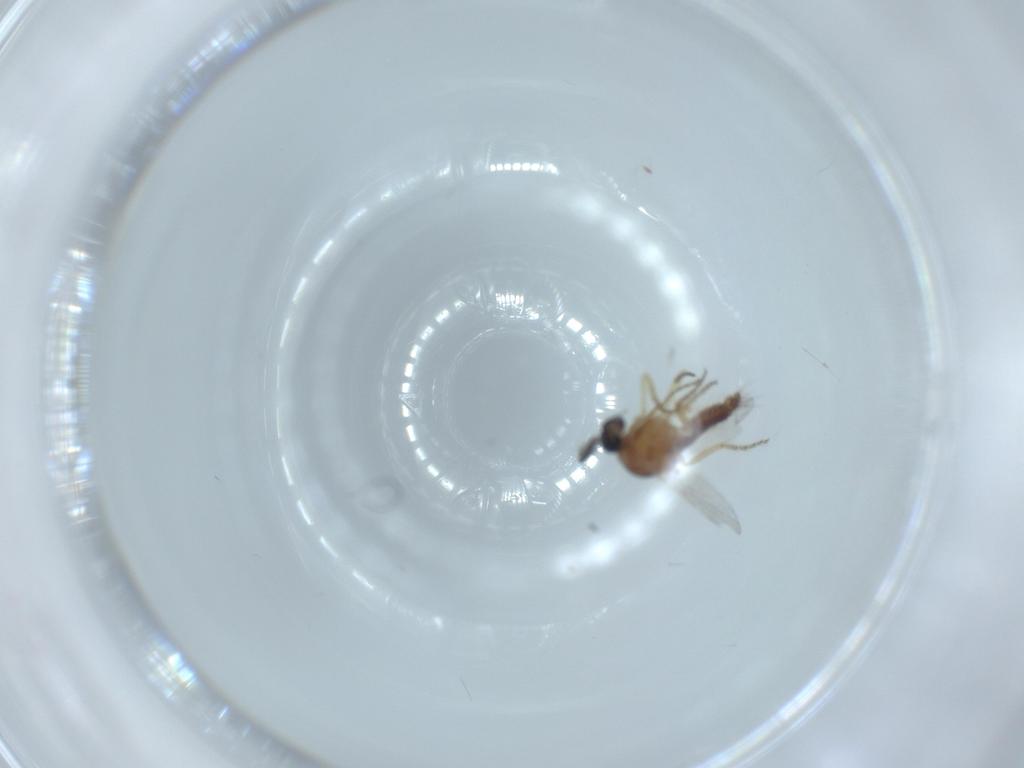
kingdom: Animalia
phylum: Arthropoda
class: Insecta
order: Diptera
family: Ceratopogonidae
